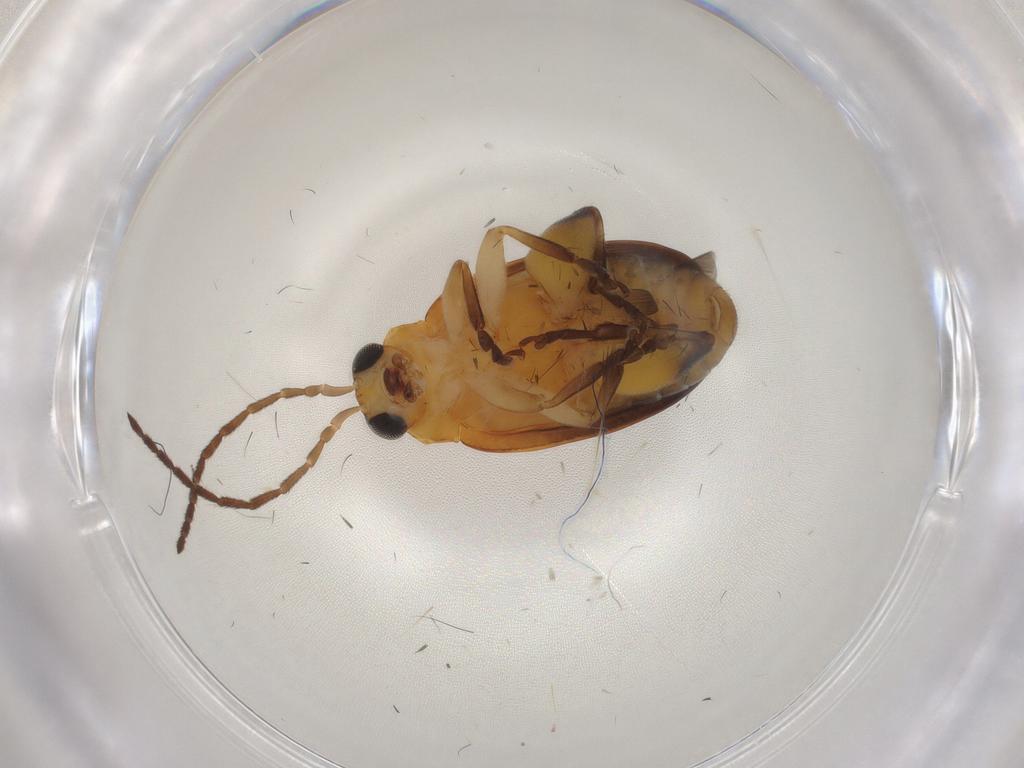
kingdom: Animalia
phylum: Arthropoda
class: Insecta
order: Coleoptera
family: Chrysomelidae
